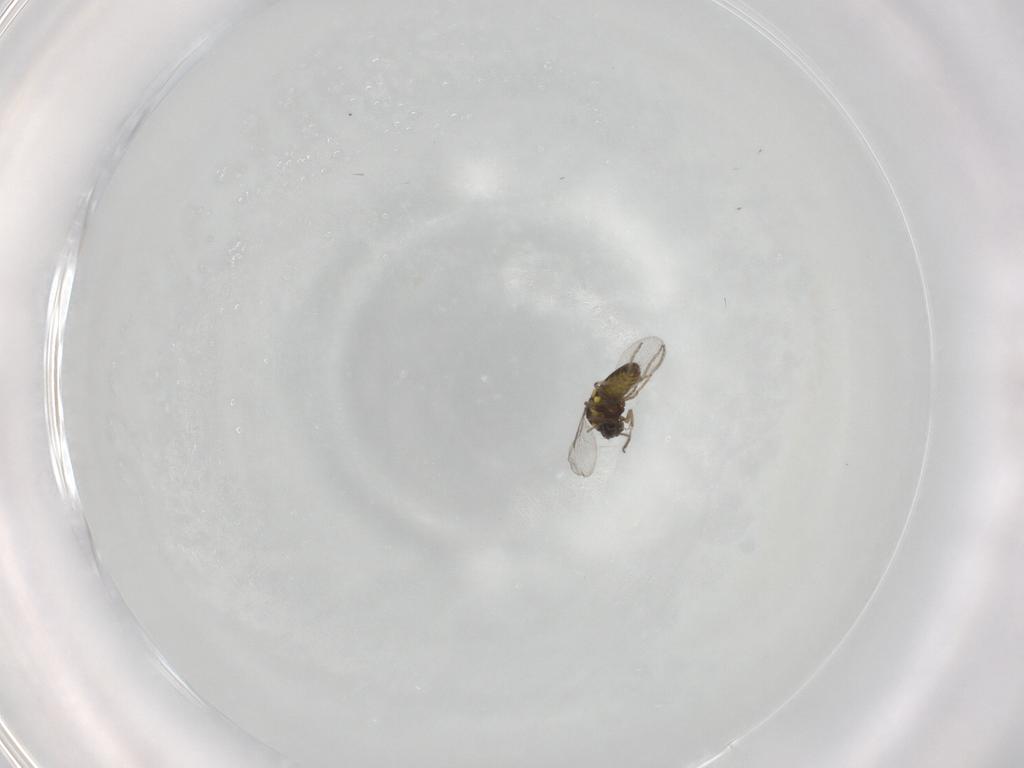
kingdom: Animalia
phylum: Arthropoda
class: Insecta
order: Diptera
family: Ceratopogonidae
